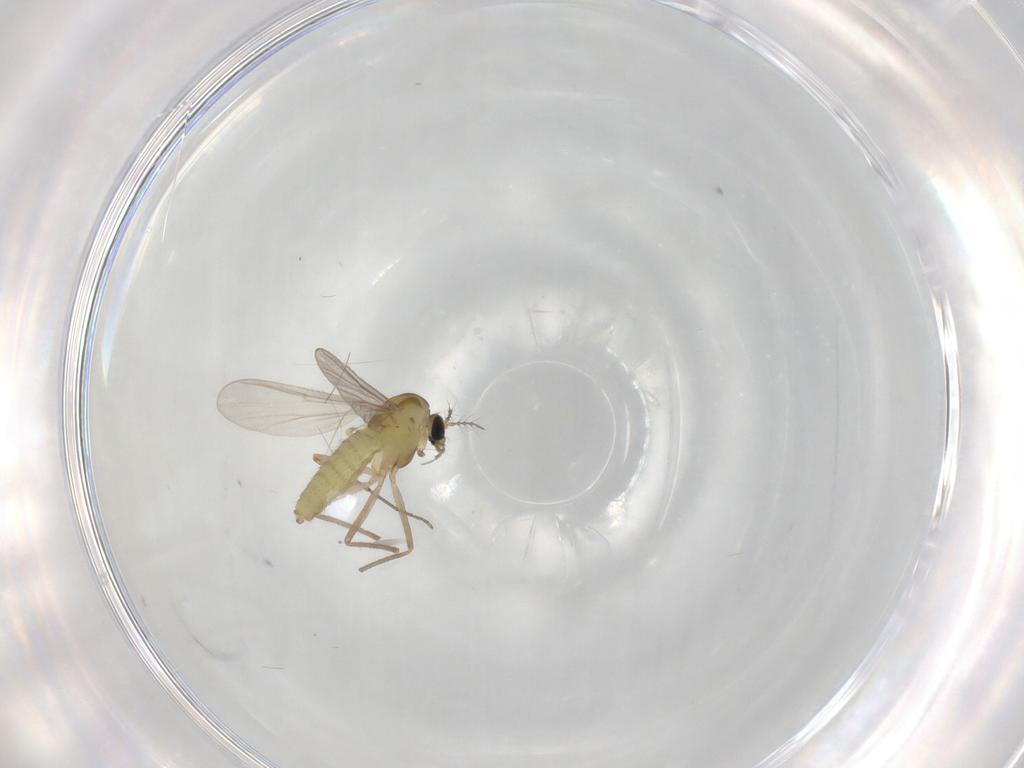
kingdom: Animalia
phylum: Arthropoda
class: Insecta
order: Diptera
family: Chironomidae
